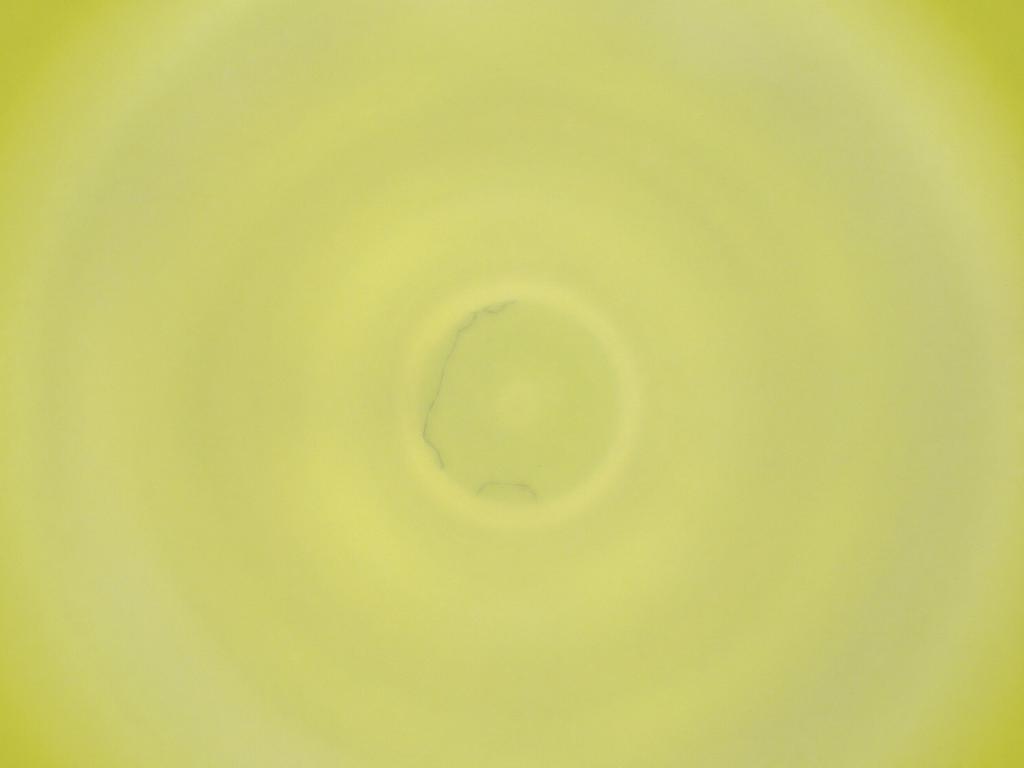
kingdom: Animalia
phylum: Arthropoda
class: Insecta
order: Diptera
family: Cecidomyiidae
